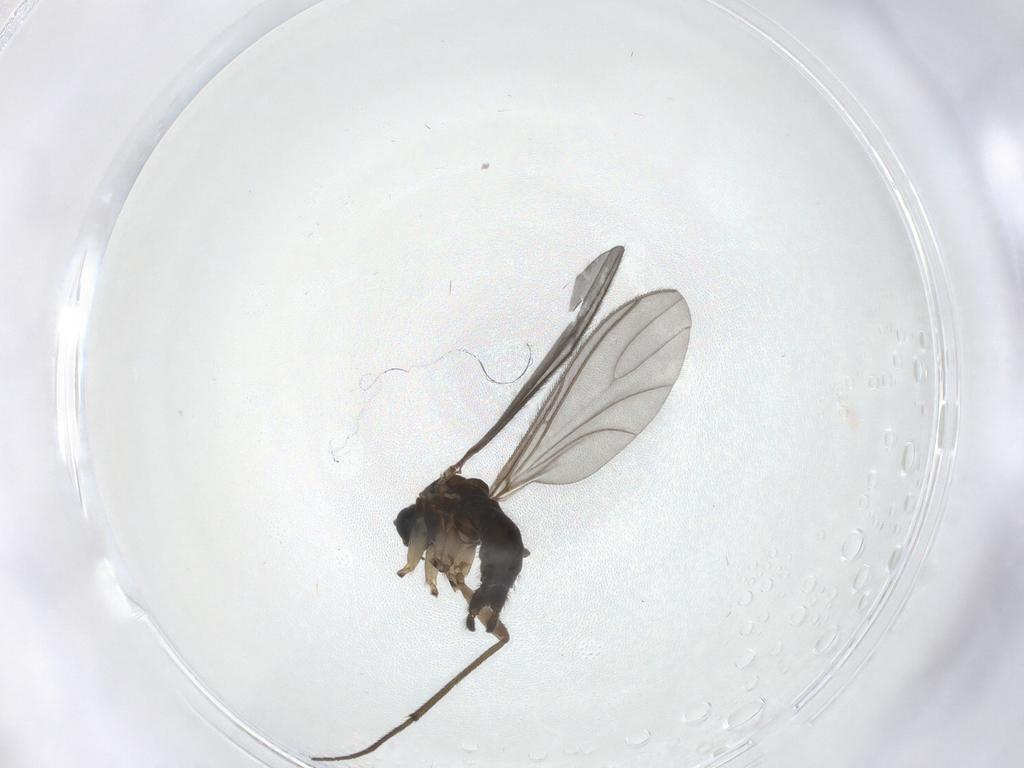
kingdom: Animalia
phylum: Arthropoda
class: Insecta
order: Diptera
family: Sciaridae
